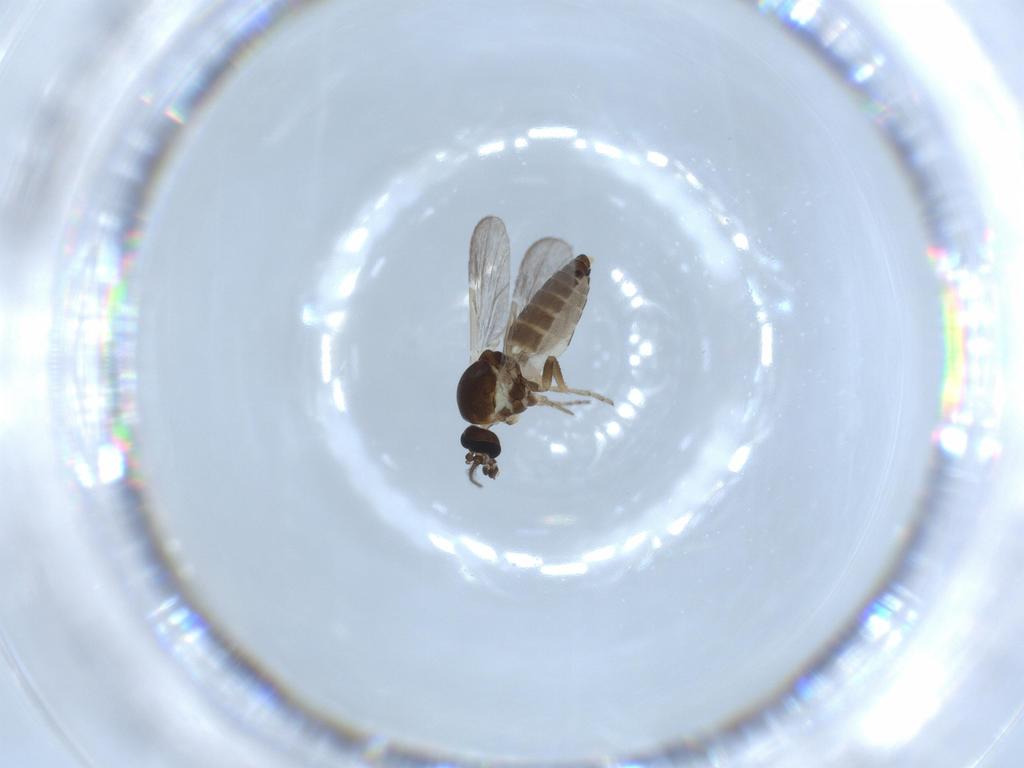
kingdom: Animalia
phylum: Arthropoda
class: Insecta
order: Diptera
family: Ceratopogonidae
